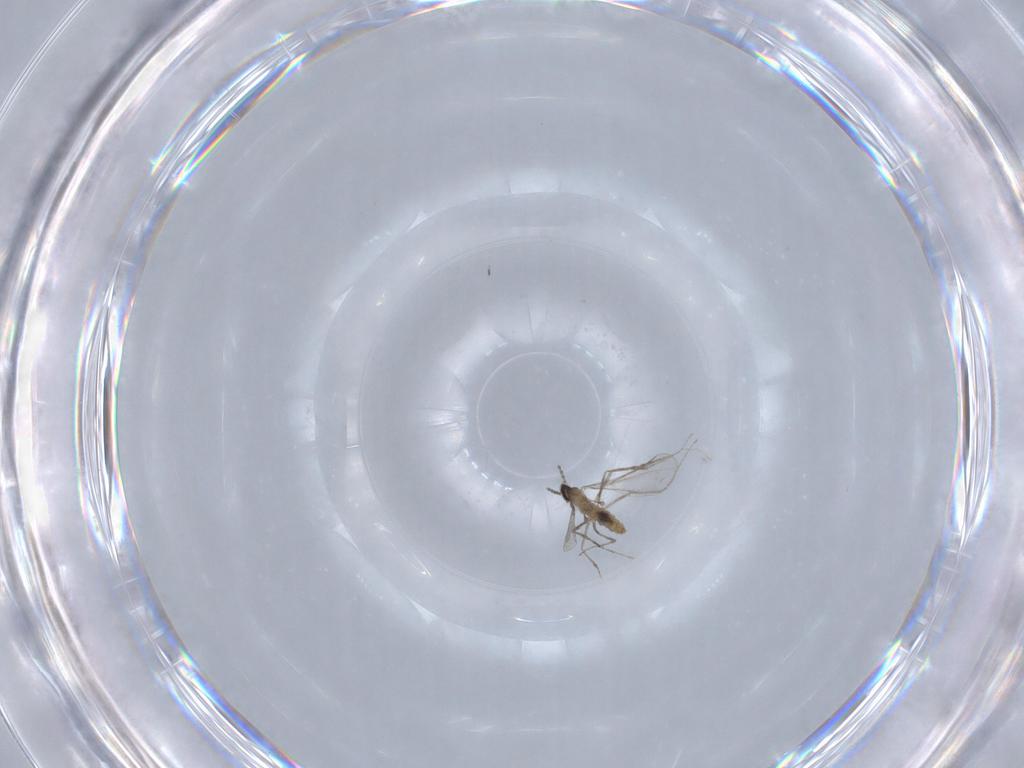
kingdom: Animalia
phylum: Arthropoda
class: Insecta
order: Diptera
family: Cecidomyiidae
